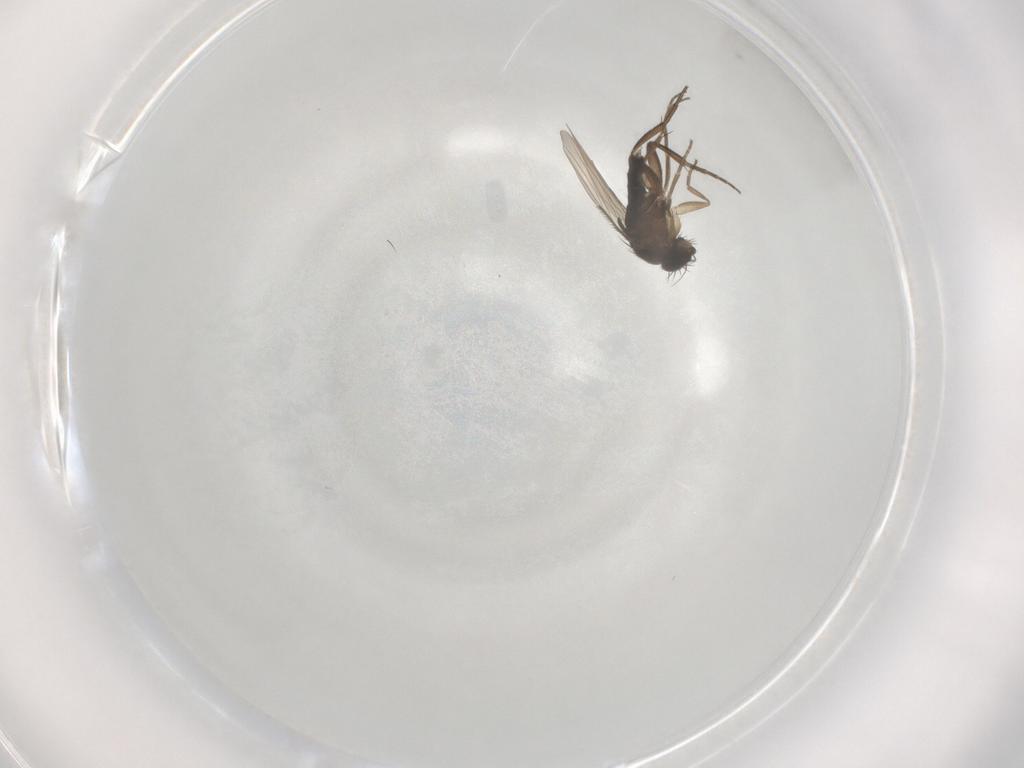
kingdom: Animalia
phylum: Arthropoda
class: Insecta
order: Diptera
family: Phoridae
